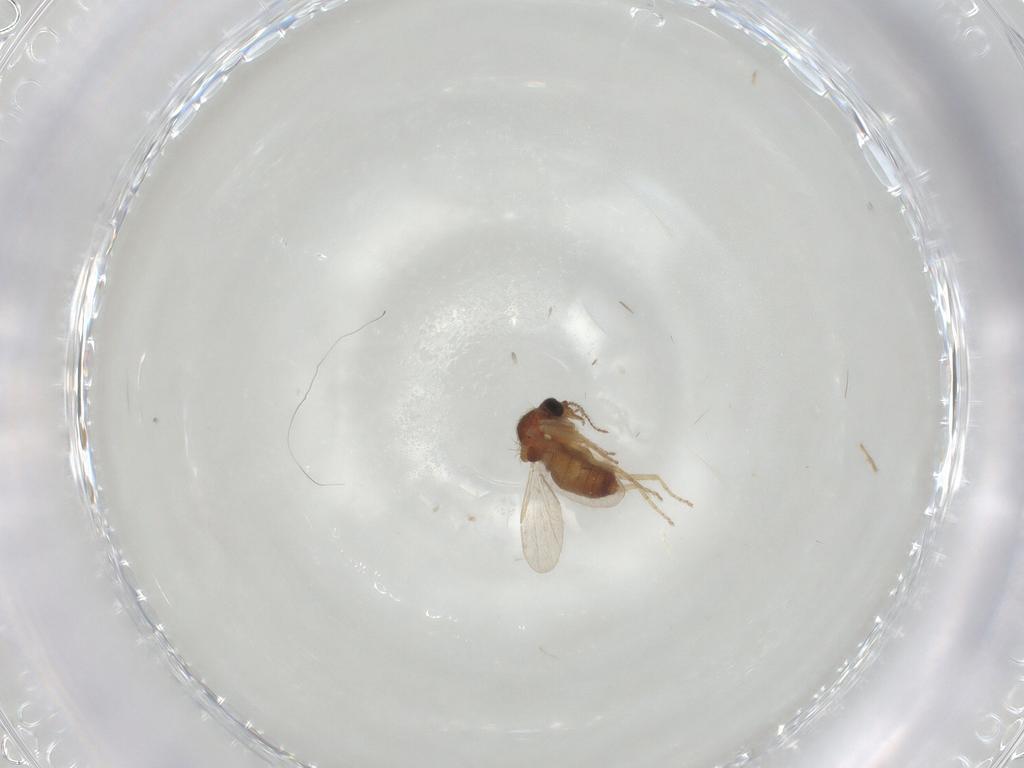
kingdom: Animalia
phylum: Arthropoda
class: Insecta
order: Diptera
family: Ceratopogonidae
